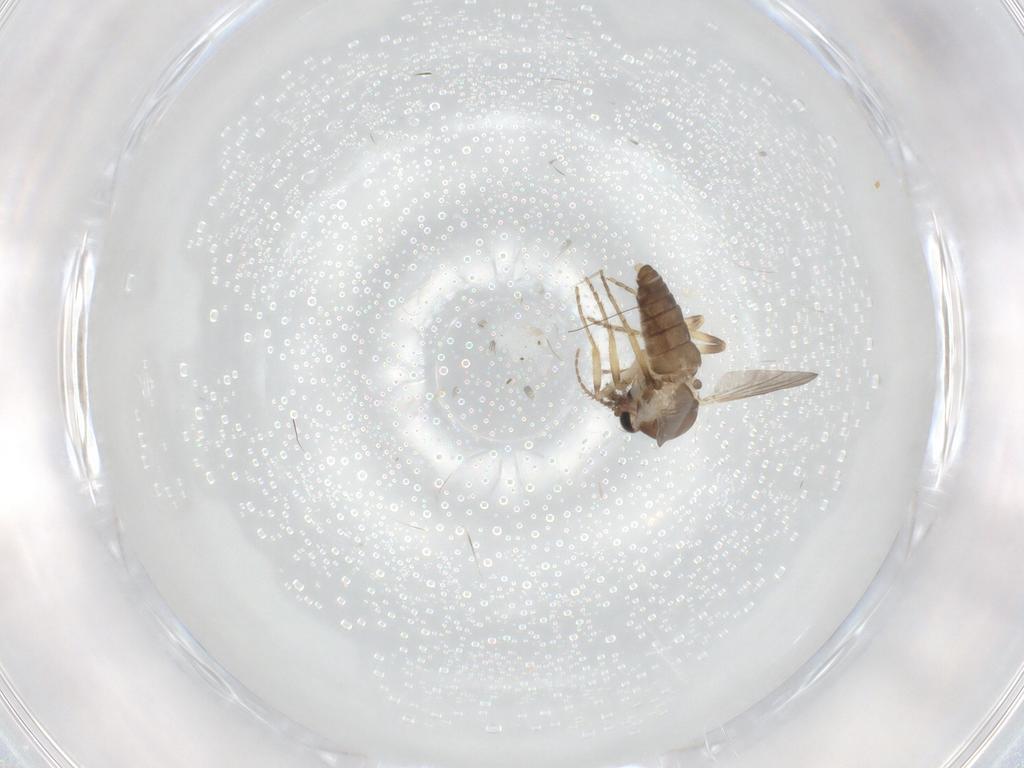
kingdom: Animalia
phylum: Arthropoda
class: Insecta
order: Diptera
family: Ceratopogonidae
